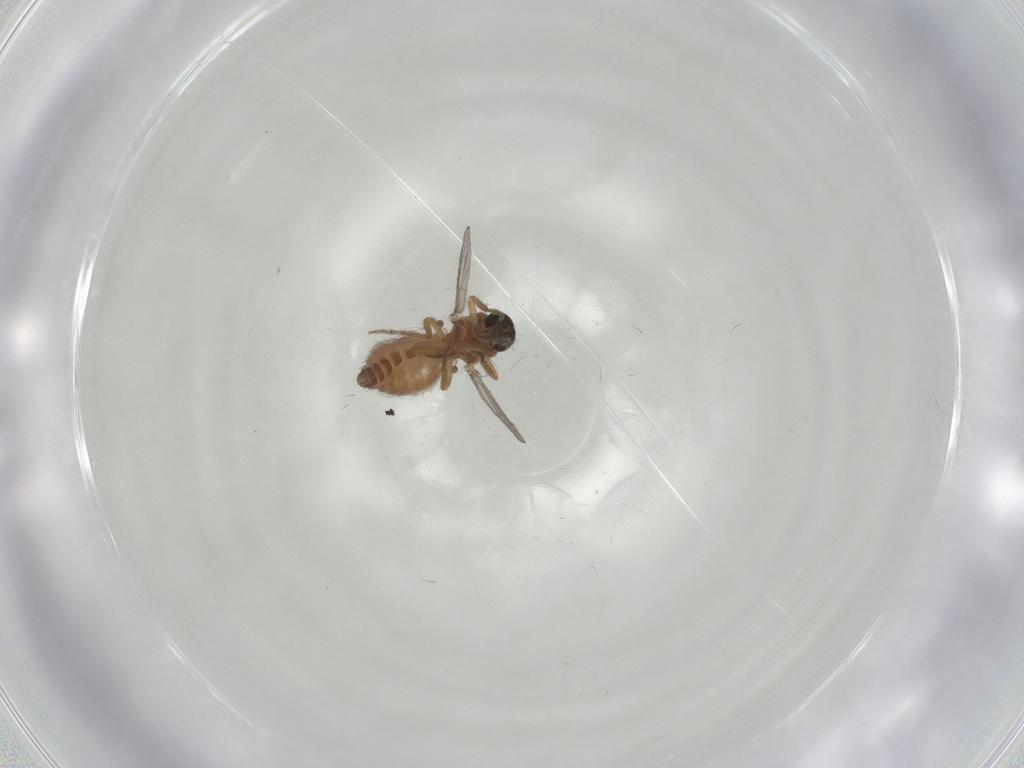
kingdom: Animalia
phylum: Arthropoda
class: Insecta
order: Diptera
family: Ceratopogonidae
